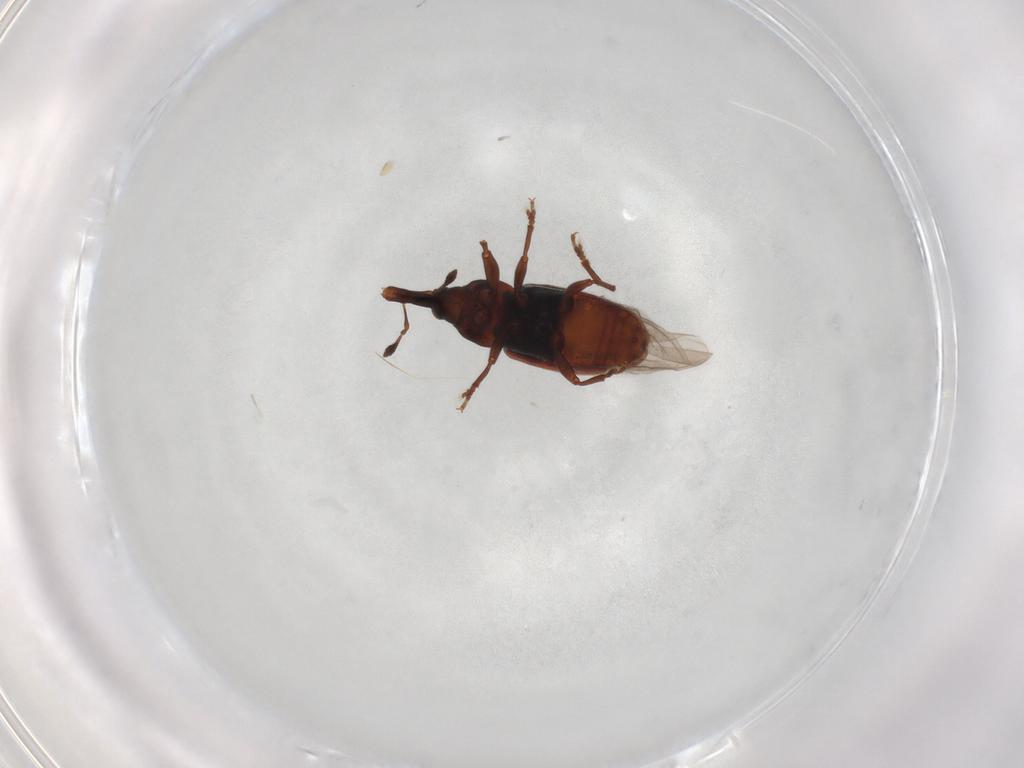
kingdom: Animalia
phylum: Arthropoda
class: Insecta
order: Coleoptera
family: Curculionidae
